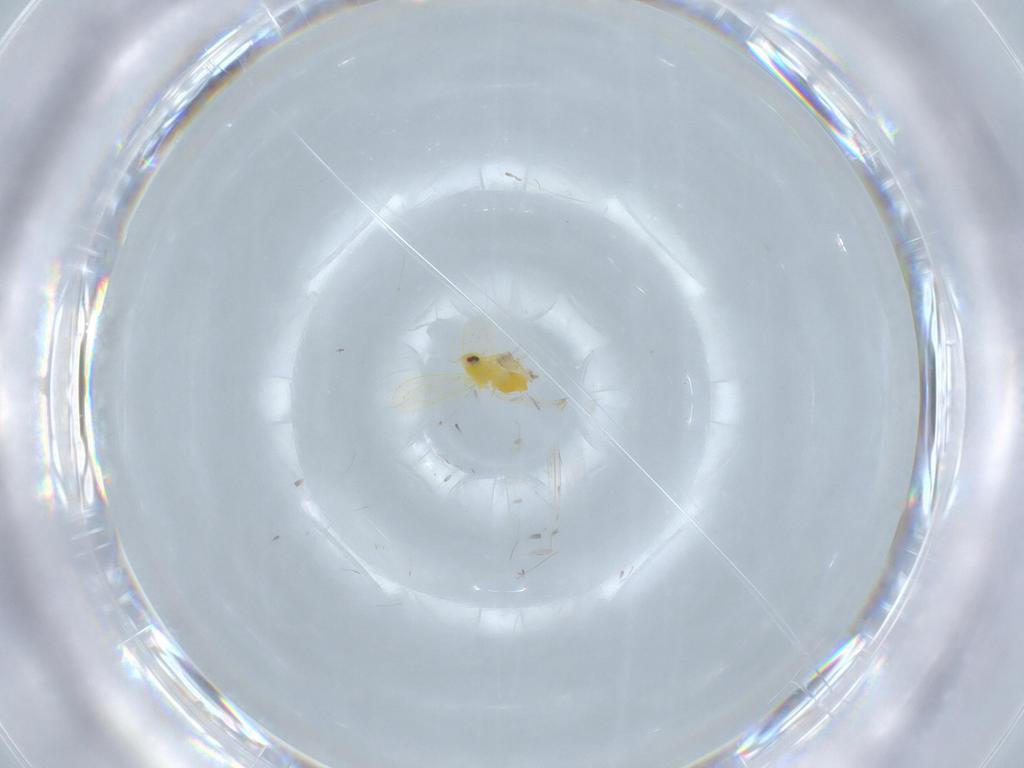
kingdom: Animalia
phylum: Arthropoda
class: Insecta
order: Hemiptera
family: Aleyrodidae
